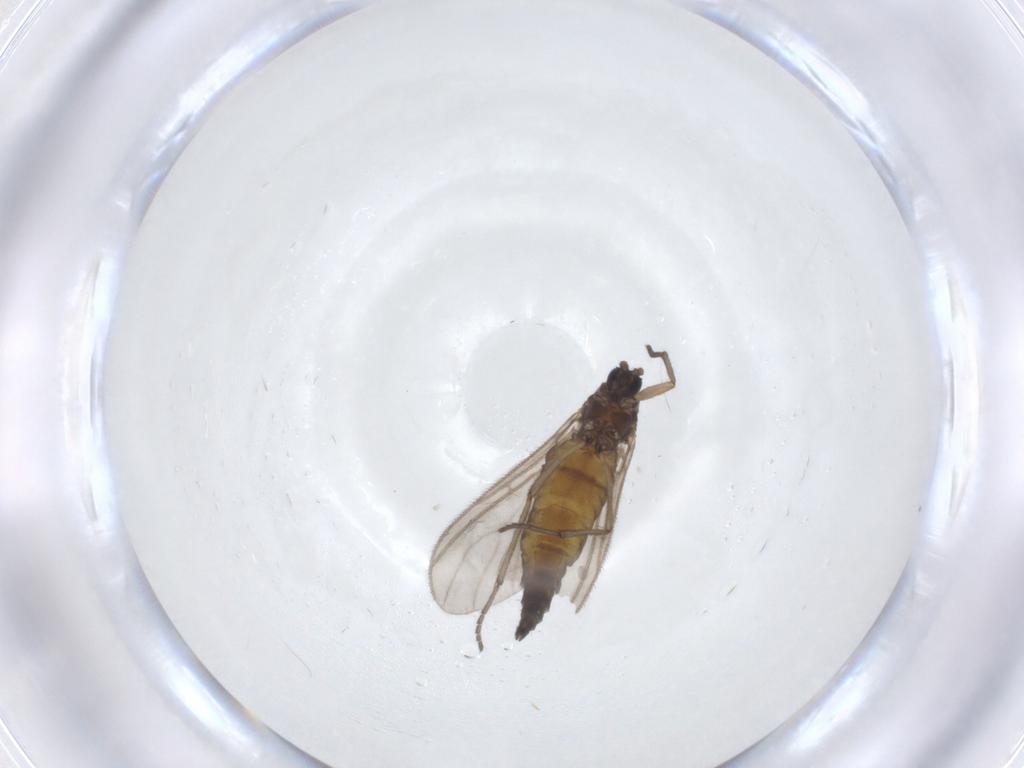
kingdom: Animalia
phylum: Arthropoda
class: Insecta
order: Diptera
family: Sciaridae
